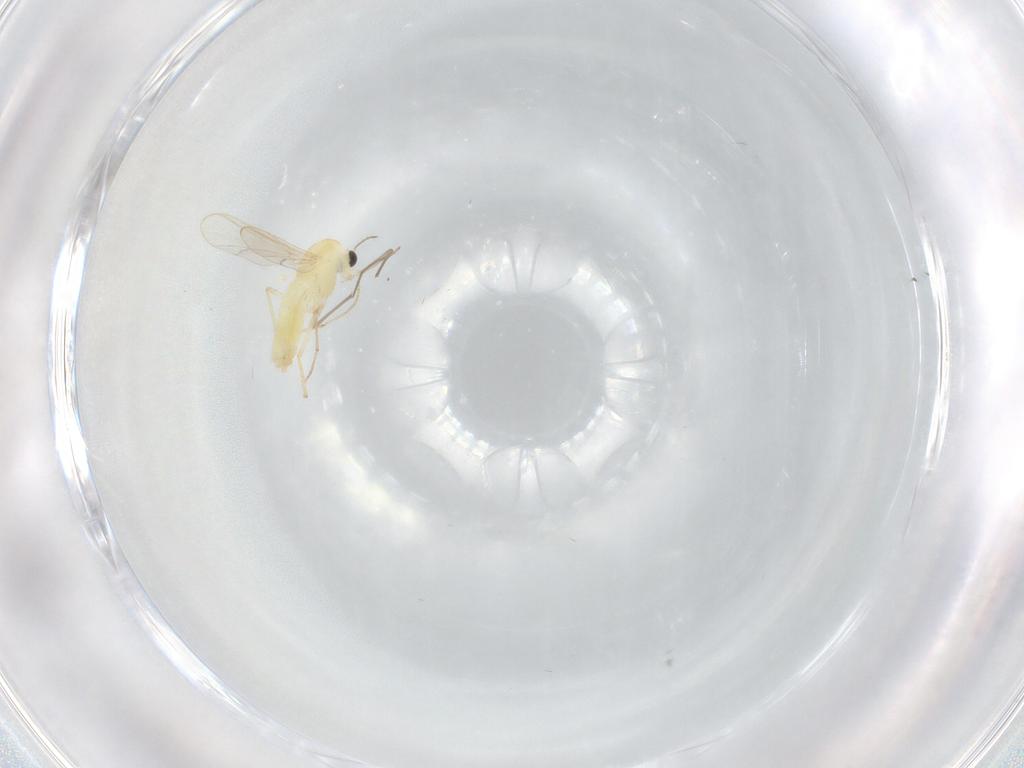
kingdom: Animalia
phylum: Arthropoda
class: Insecta
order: Diptera
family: Chironomidae
